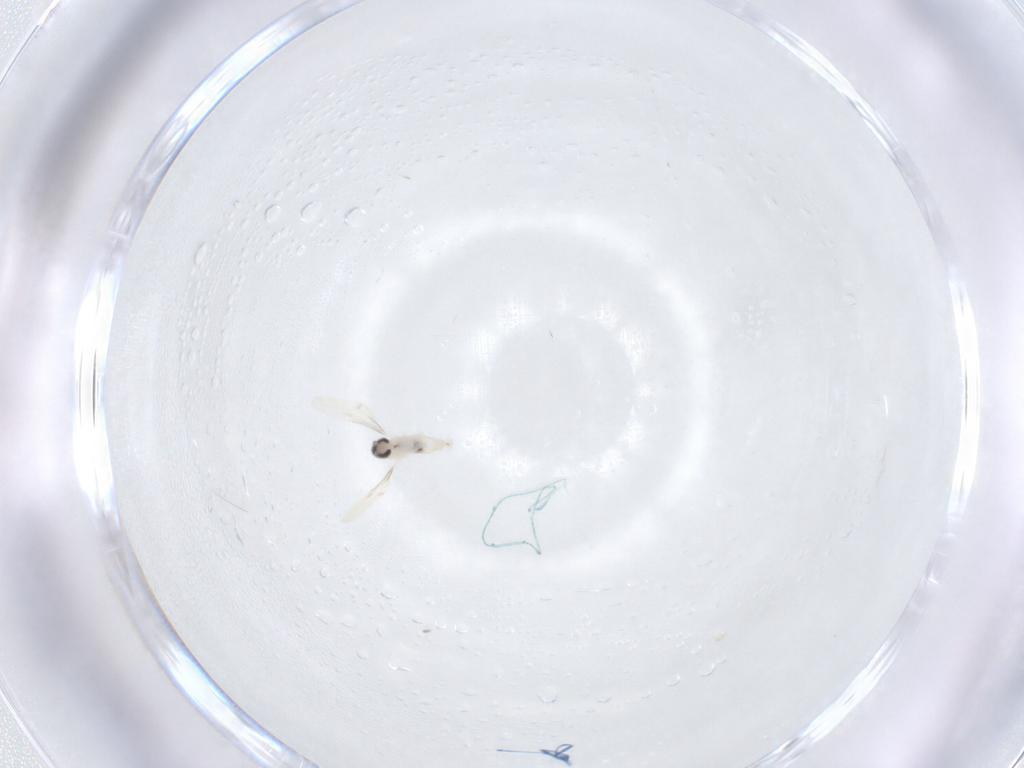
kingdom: Animalia
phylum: Arthropoda
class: Insecta
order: Diptera
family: Cecidomyiidae
